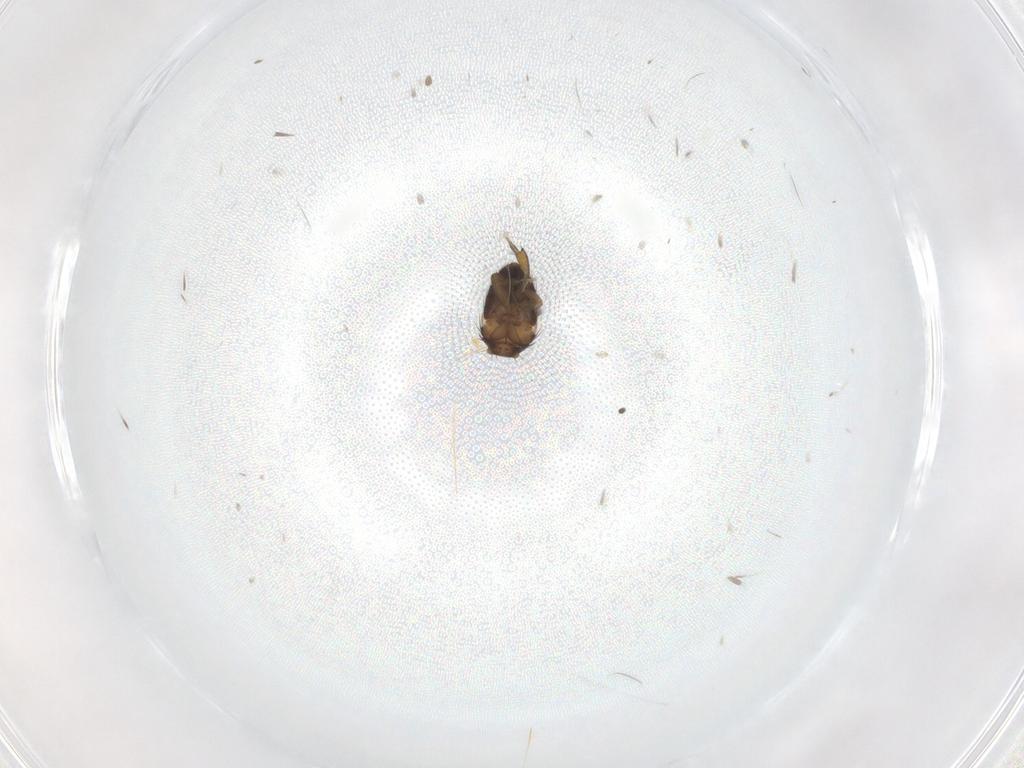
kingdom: Animalia
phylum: Arthropoda
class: Insecta
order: Diptera
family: Phoridae
